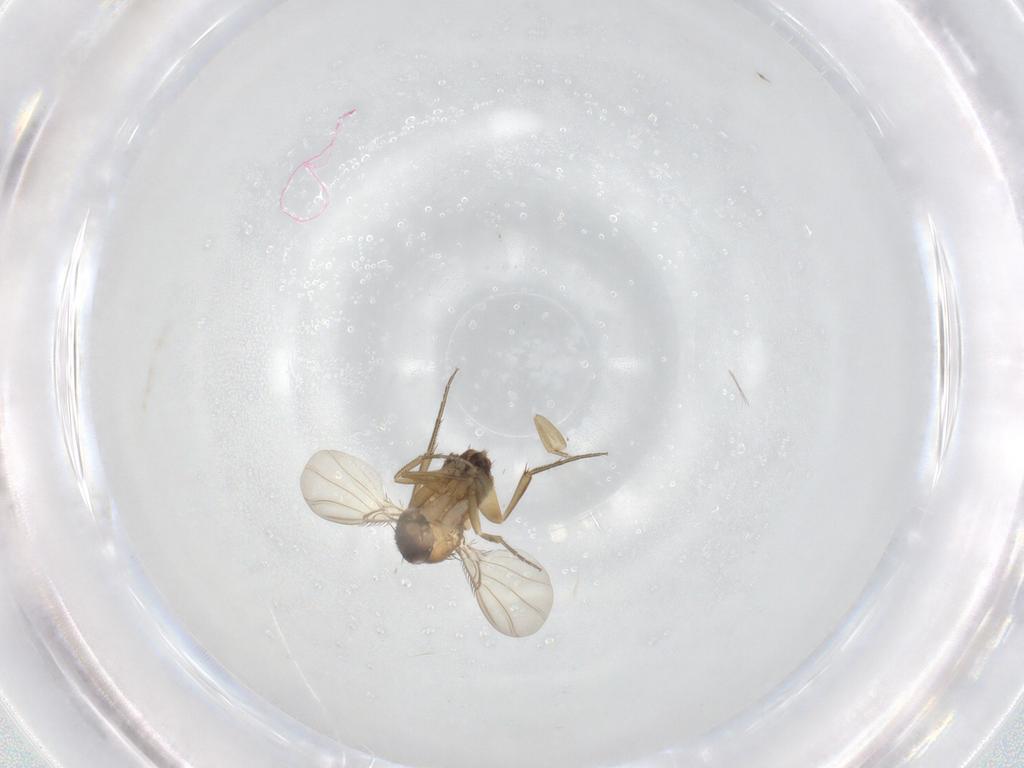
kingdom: Animalia
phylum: Arthropoda
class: Insecta
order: Diptera
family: Phoridae
